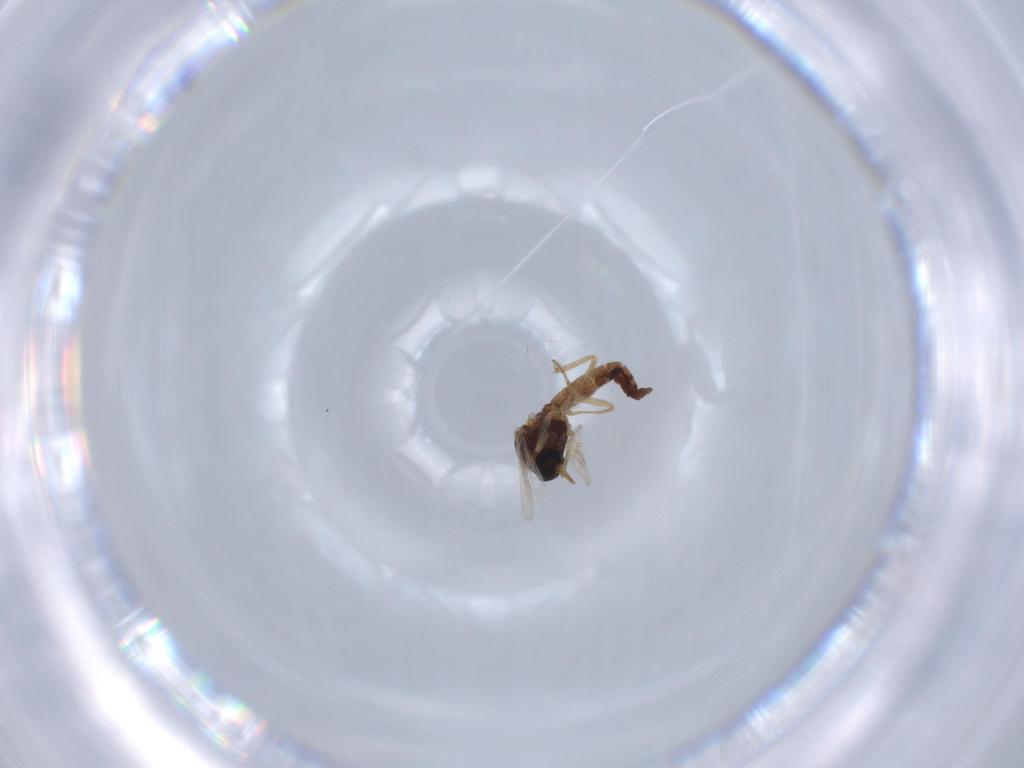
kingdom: Animalia
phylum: Arthropoda
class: Insecta
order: Diptera
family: Ceratopogonidae
